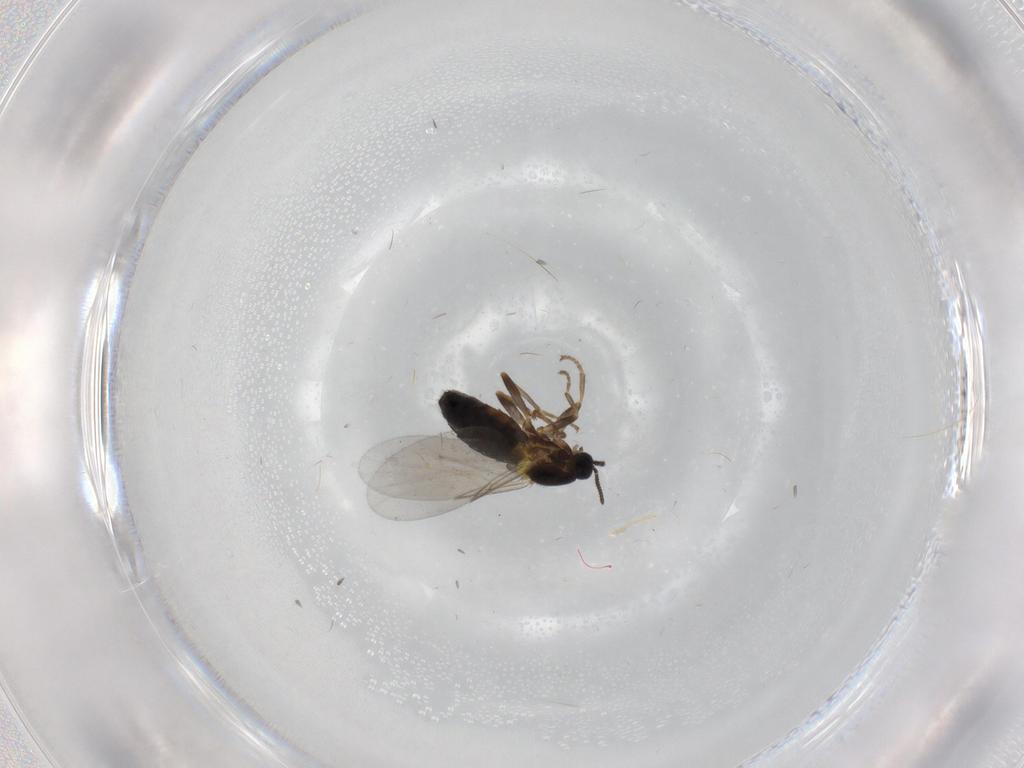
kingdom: Animalia
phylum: Arthropoda
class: Insecta
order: Diptera
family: Scatopsidae
